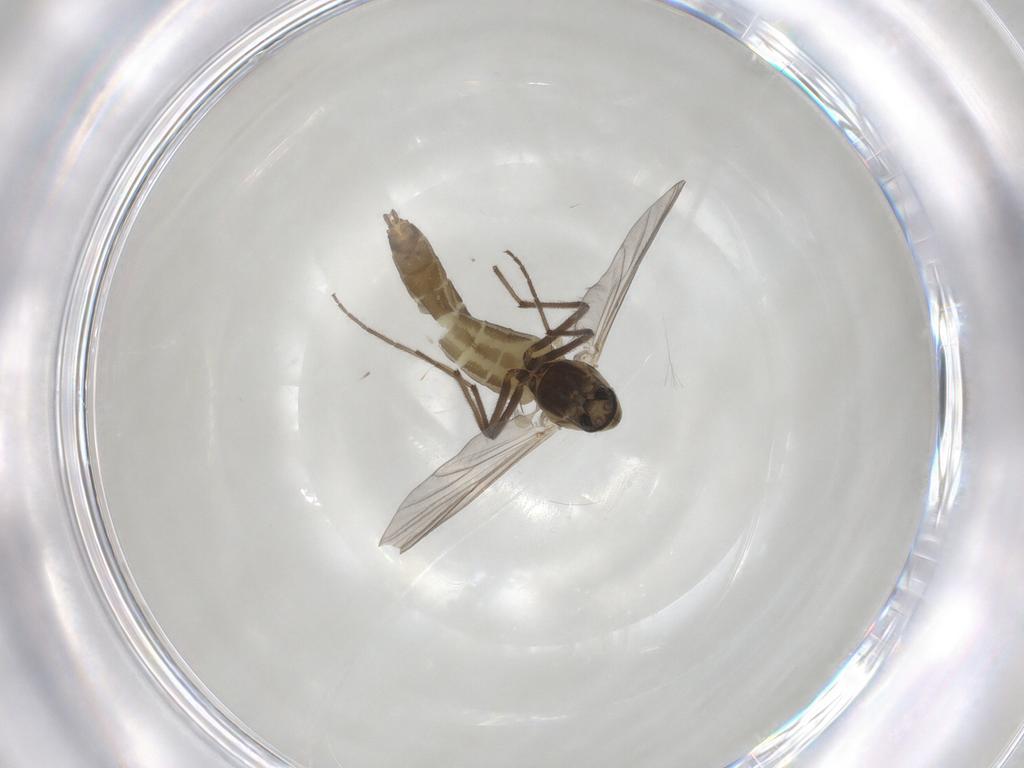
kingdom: Animalia
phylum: Arthropoda
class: Insecta
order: Diptera
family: Chironomidae
